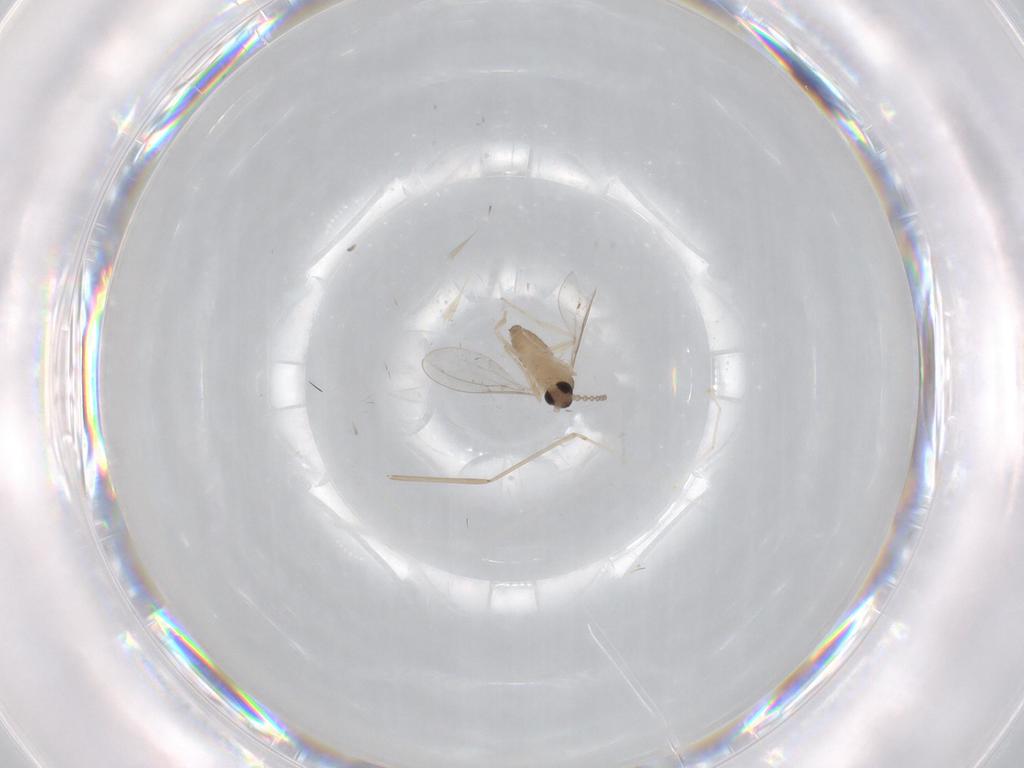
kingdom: Animalia
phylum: Arthropoda
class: Insecta
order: Diptera
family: Cecidomyiidae
